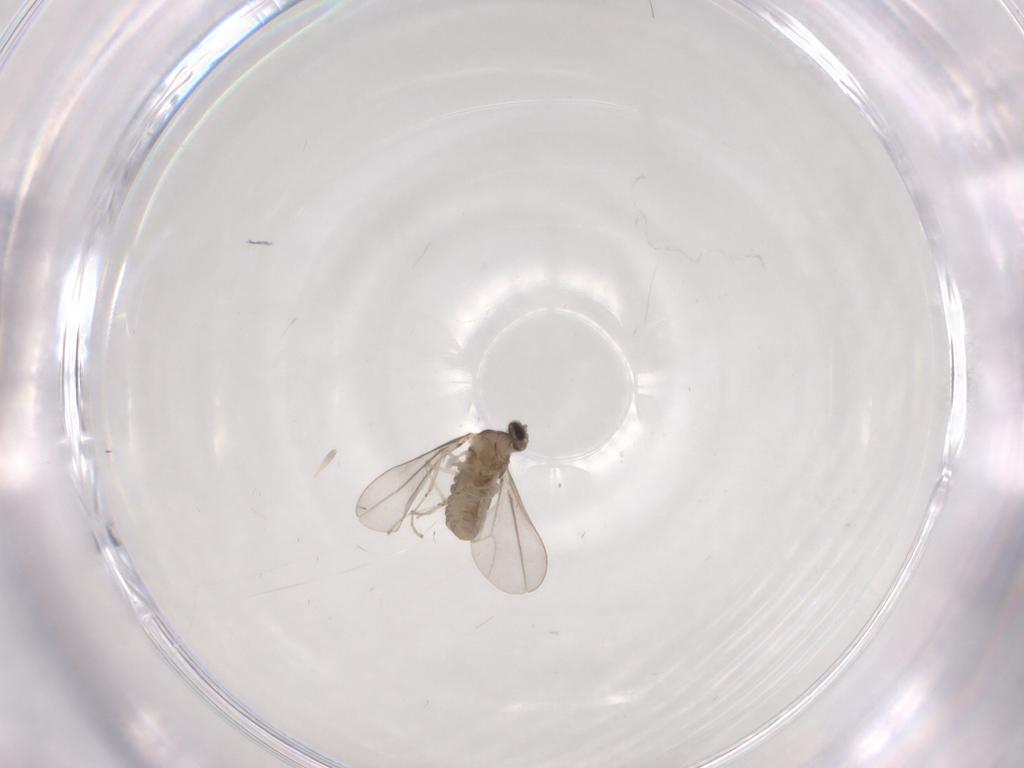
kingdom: Animalia
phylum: Arthropoda
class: Insecta
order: Diptera
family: Cecidomyiidae
